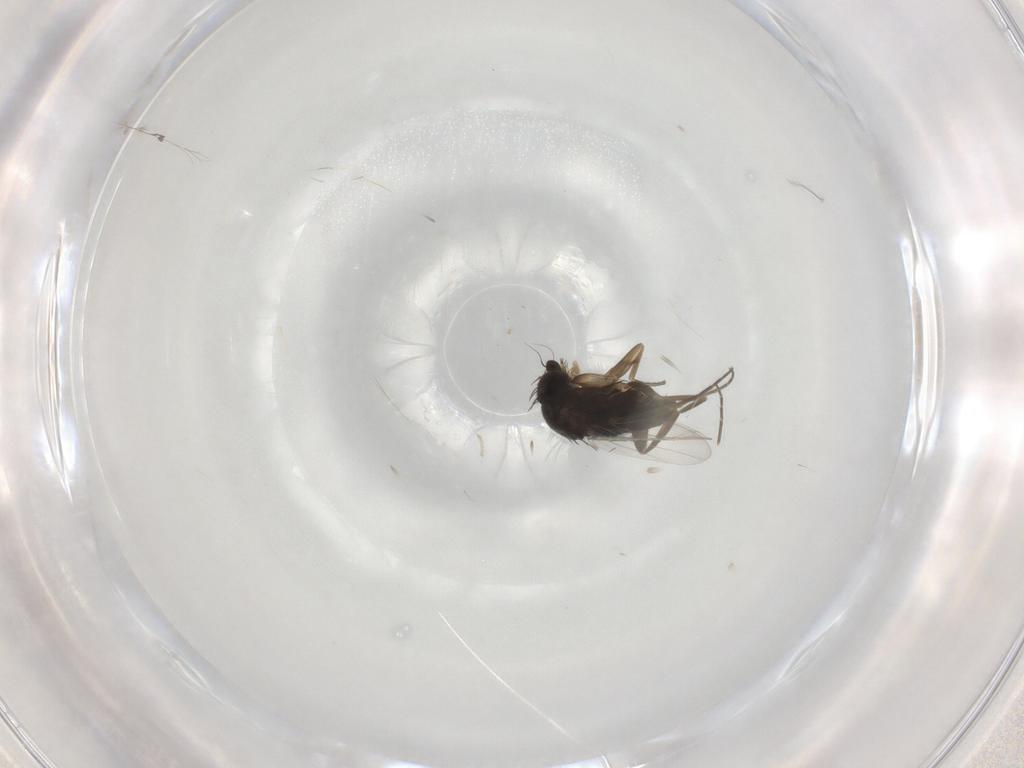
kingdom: Animalia
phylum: Arthropoda
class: Insecta
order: Diptera
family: Phoridae
